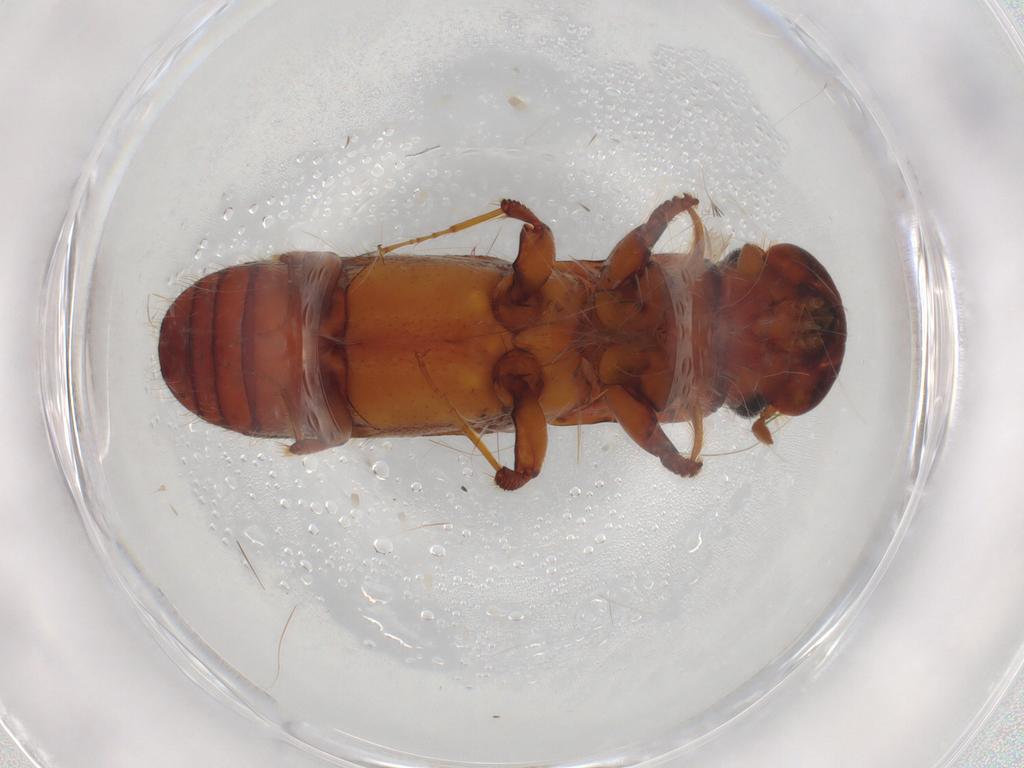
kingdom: Animalia
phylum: Arthropoda
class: Insecta
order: Coleoptera
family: Curculionidae
